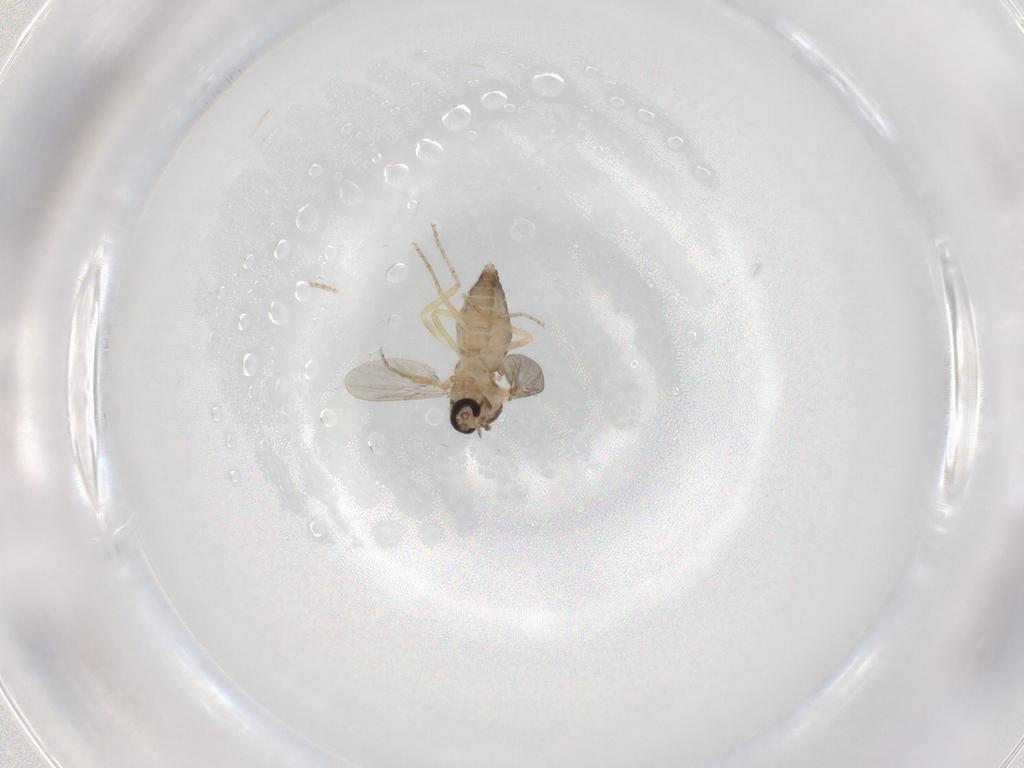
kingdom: Animalia
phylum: Arthropoda
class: Insecta
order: Diptera
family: Ceratopogonidae
